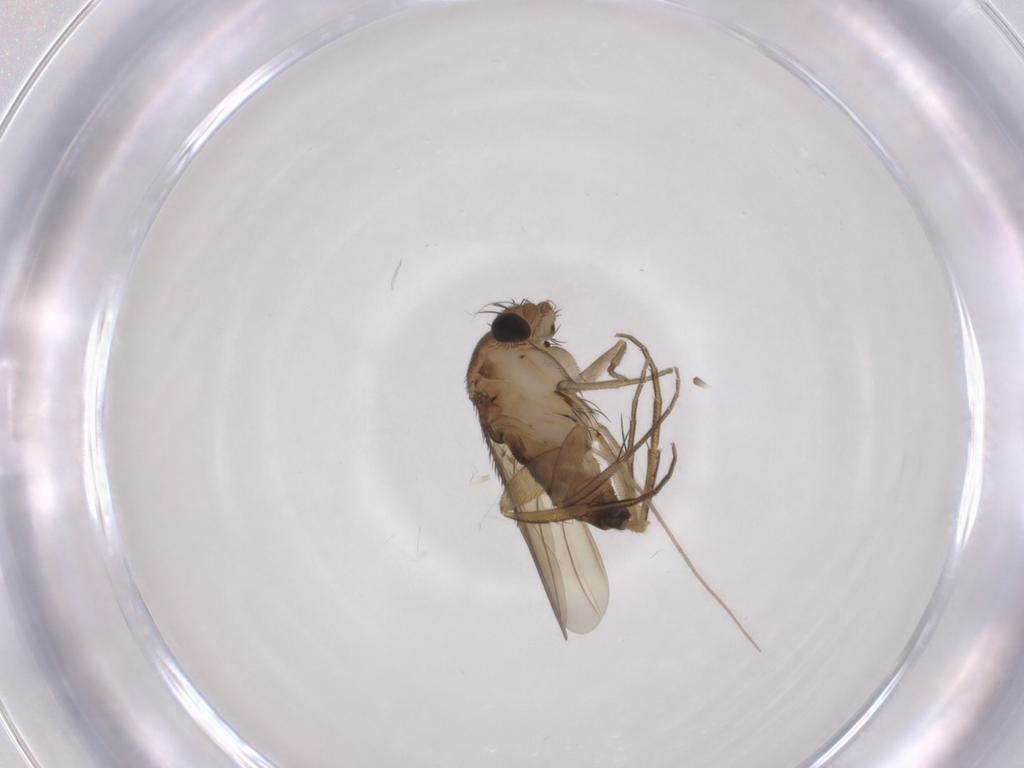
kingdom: Animalia
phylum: Arthropoda
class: Insecta
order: Diptera
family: Phoridae
